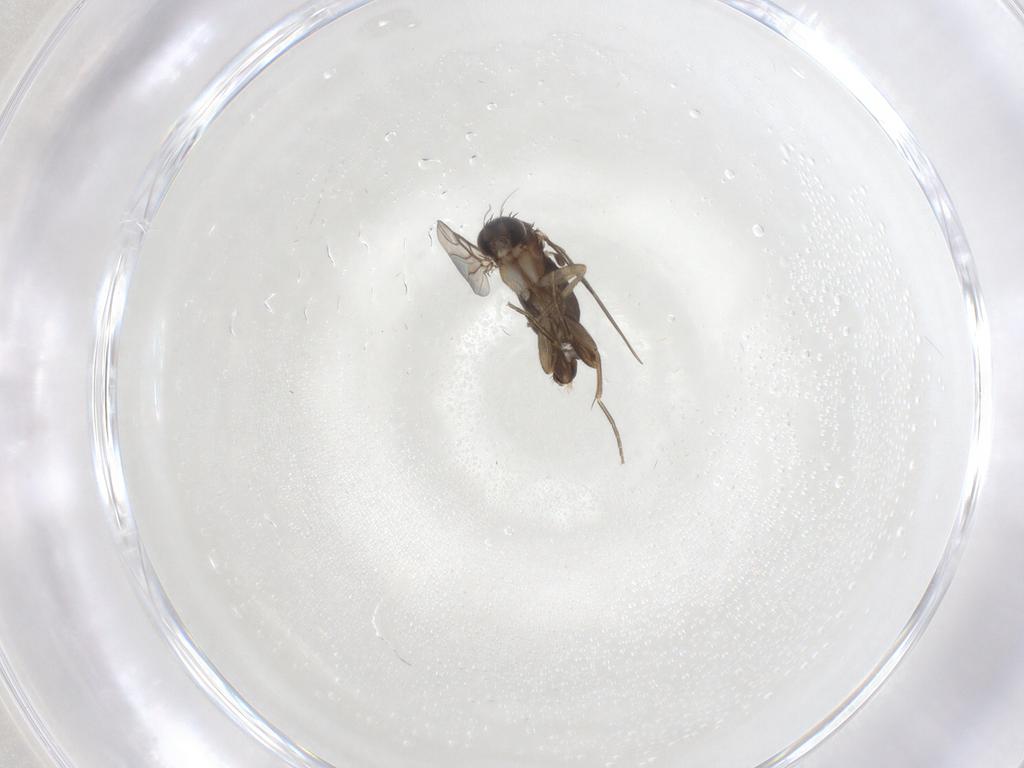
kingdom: Animalia
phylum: Arthropoda
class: Insecta
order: Diptera
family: Phoridae
